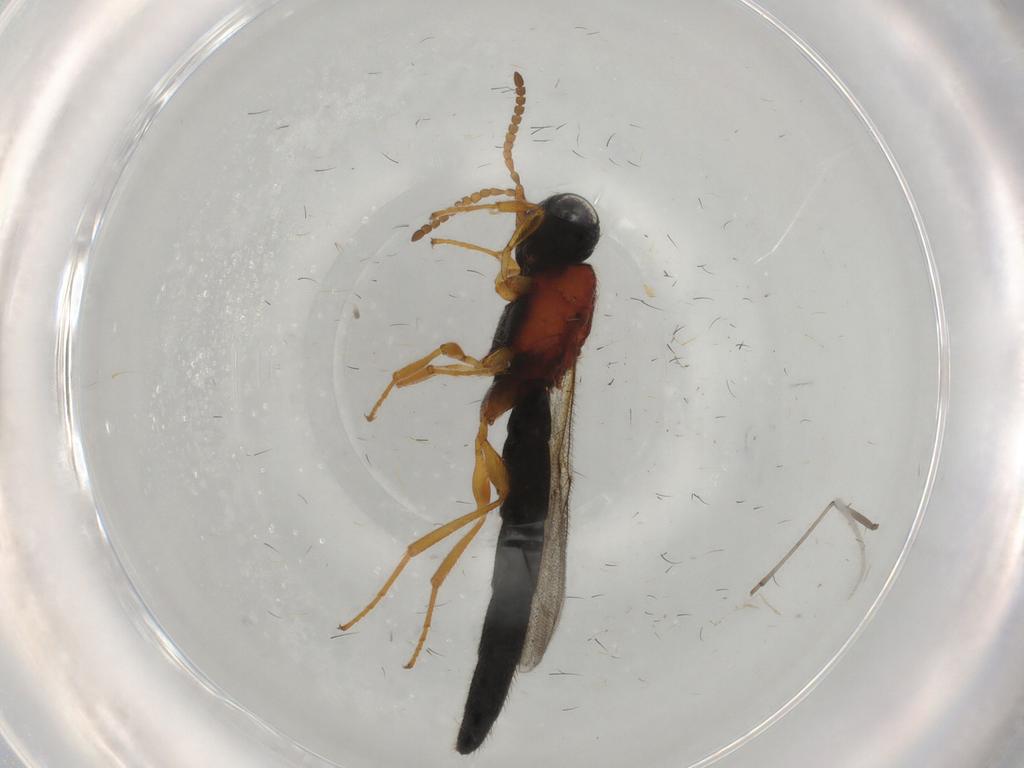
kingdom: Animalia
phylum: Arthropoda
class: Insecta
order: Hymenoptera
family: Scelionidae
